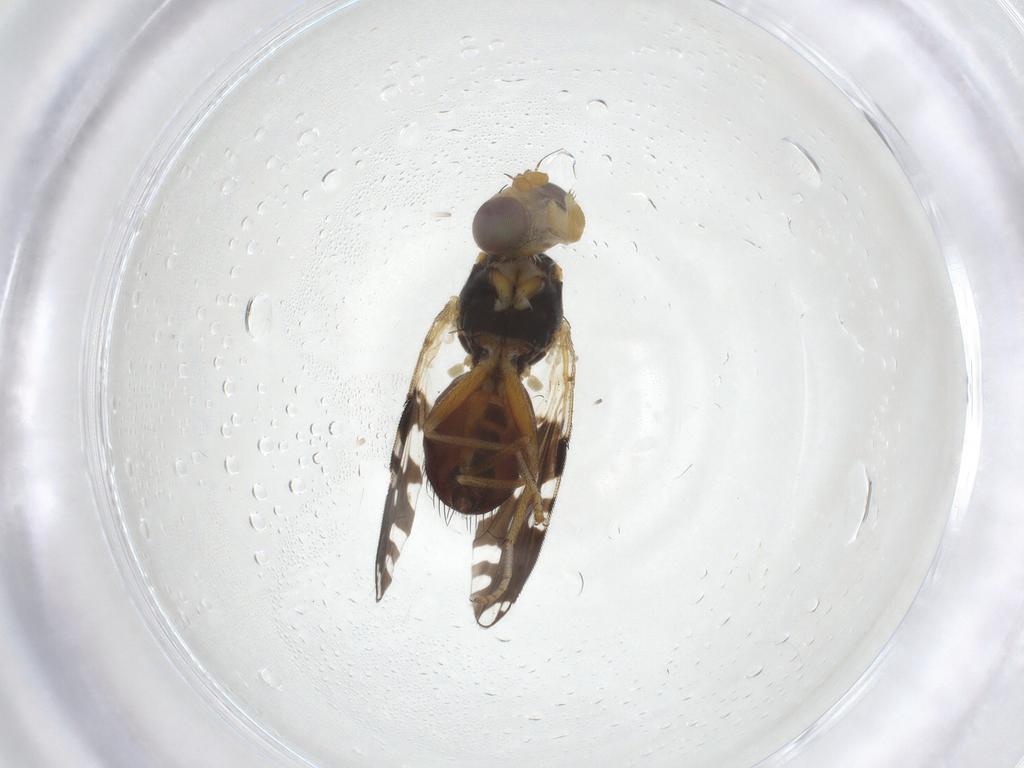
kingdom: Animalia
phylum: Arthropoda
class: Insecta
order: Diptera
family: Tephritidae
